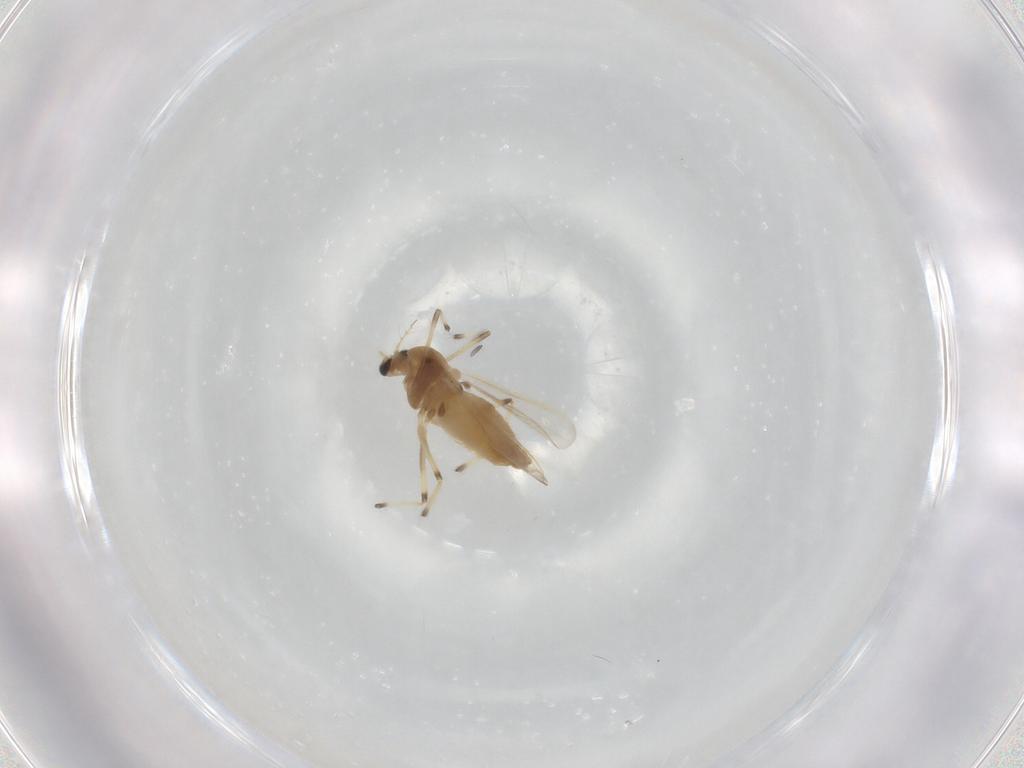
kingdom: Animalia
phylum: Arthropoda
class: Insecta
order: Diptera
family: Chironomidae
